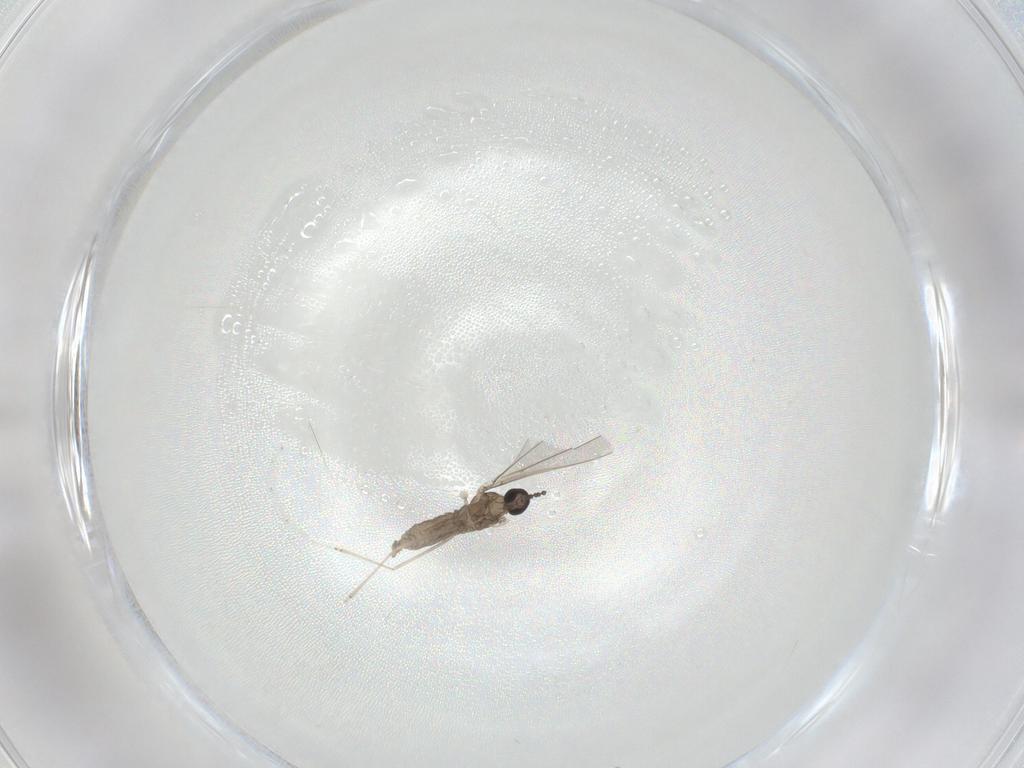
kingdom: Animalia
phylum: Arthropoda
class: Insecta
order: Diptera
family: Cecidomyiidae
